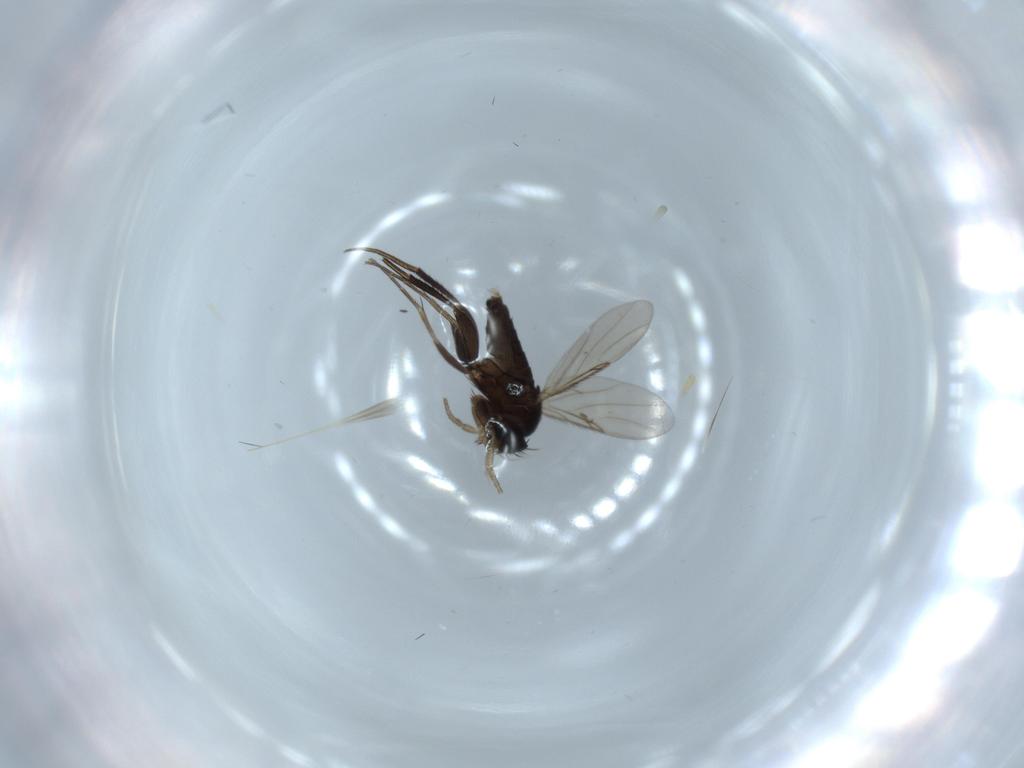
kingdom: Animalia
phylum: Arthropoda
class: Insecta
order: Diptera
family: Sciaridae
